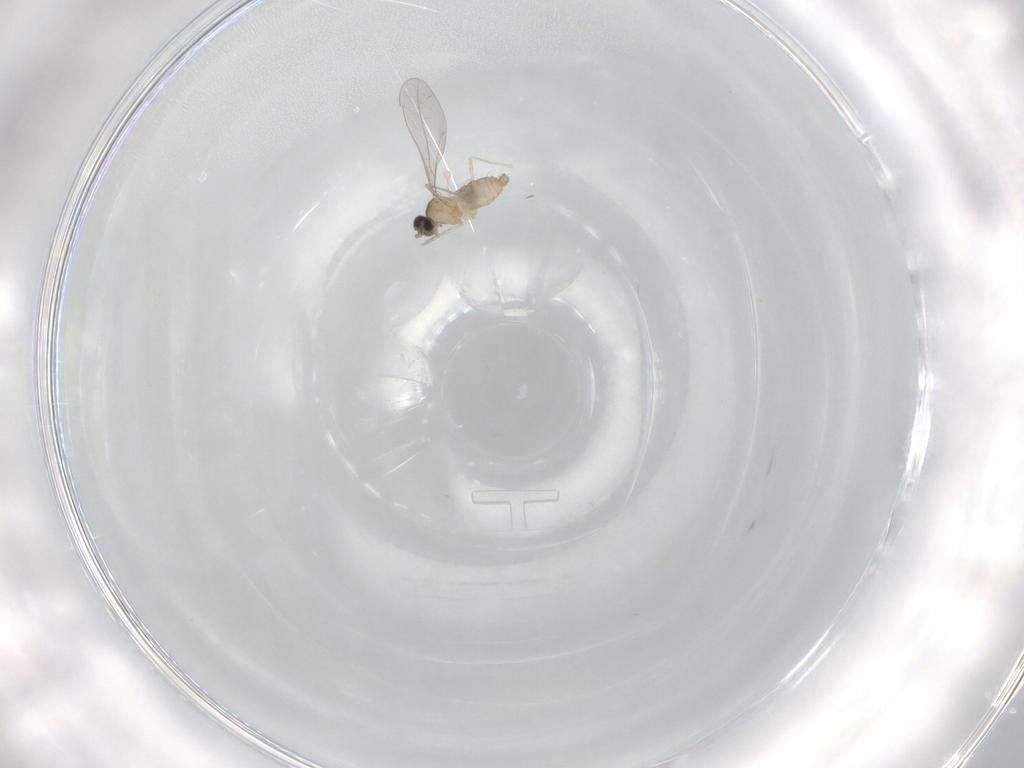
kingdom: Animalia
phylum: Arthropoda
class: Insecta
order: Diptera
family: Cecidomyiidae
